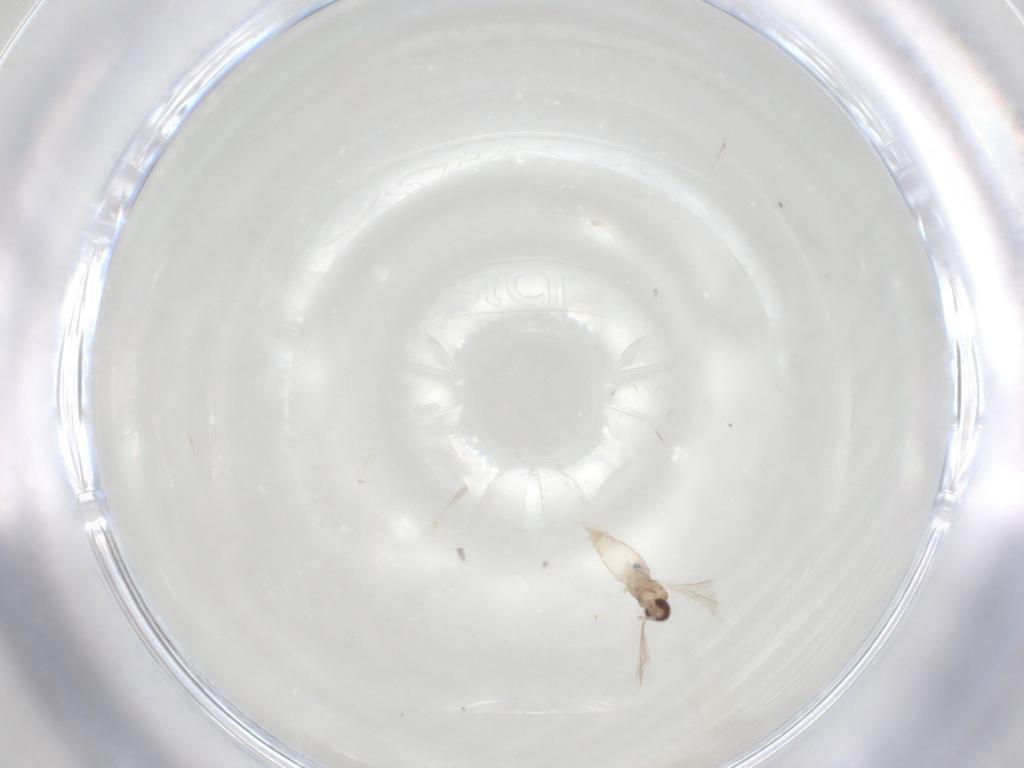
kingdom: Animalia
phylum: Arthropoda
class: Insecta
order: Diptera
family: Cecidomyiidae
